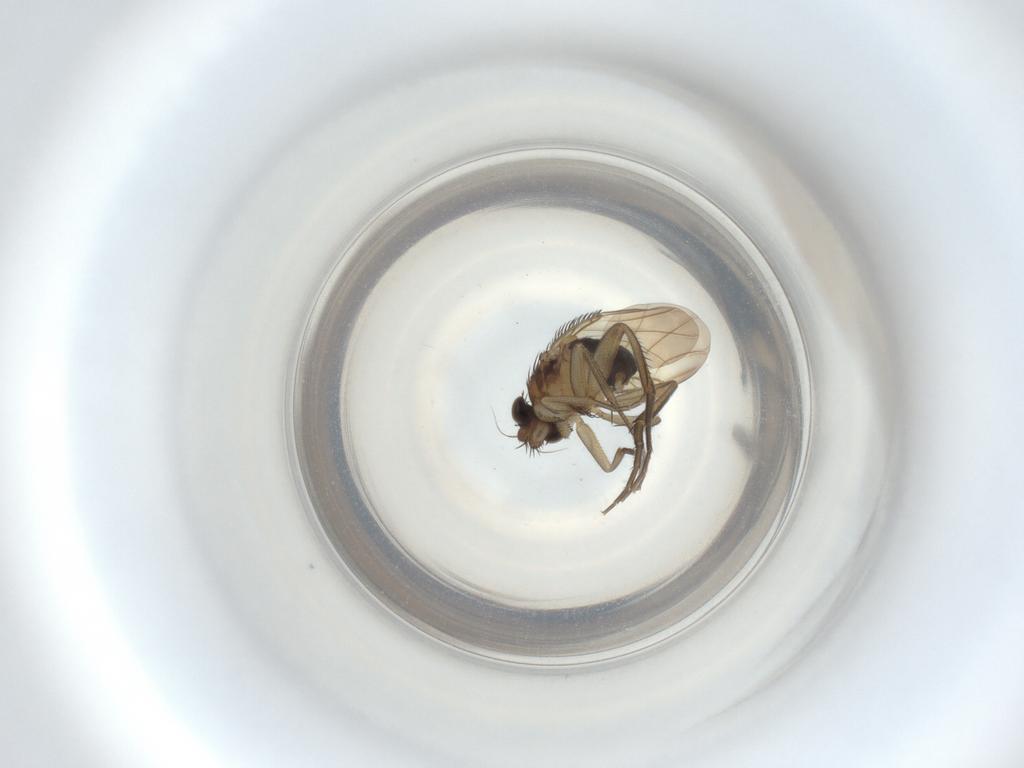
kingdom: Animalia
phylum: Arthropoda
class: Insecta
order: Diptera
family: Phoridae
